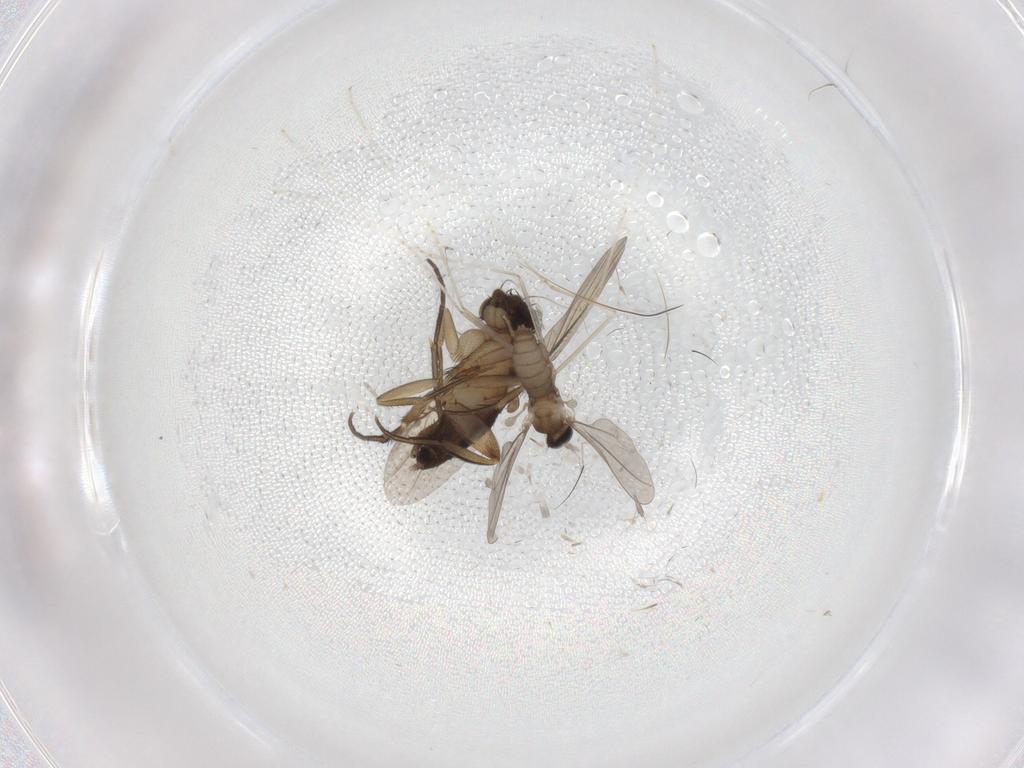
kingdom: Animalia
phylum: Arthropoda
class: Insecta
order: Diptera
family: Phoridae
